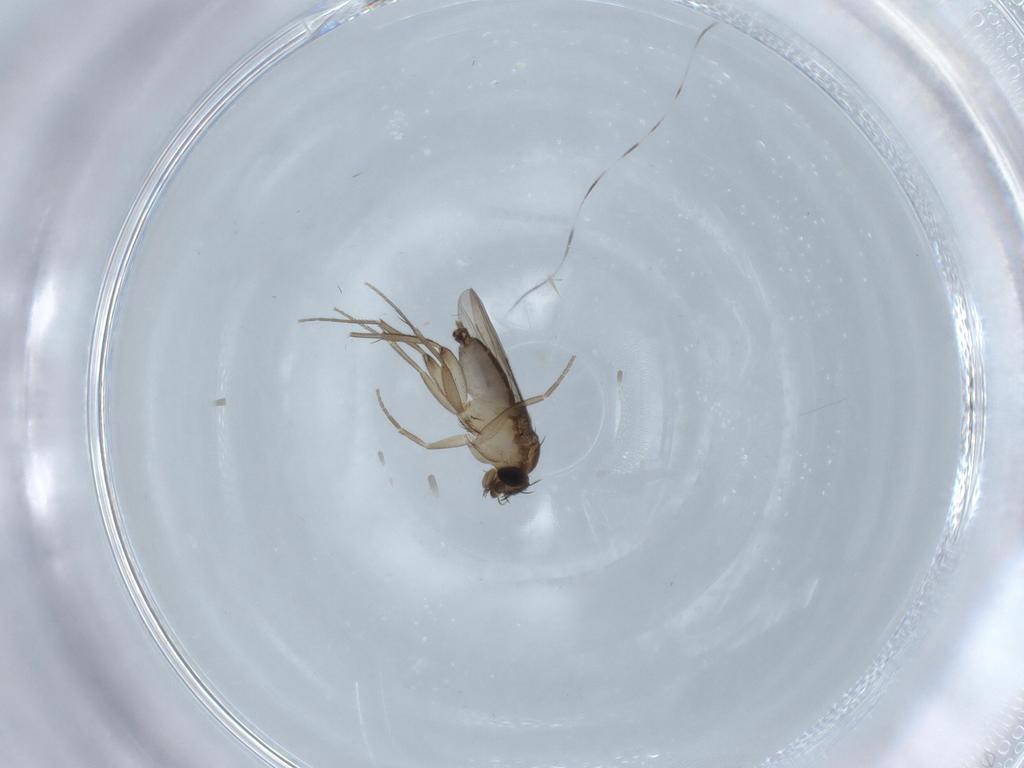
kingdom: Animalia
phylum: Arthropoda
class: Insecta
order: Diptera
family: Phoridae
